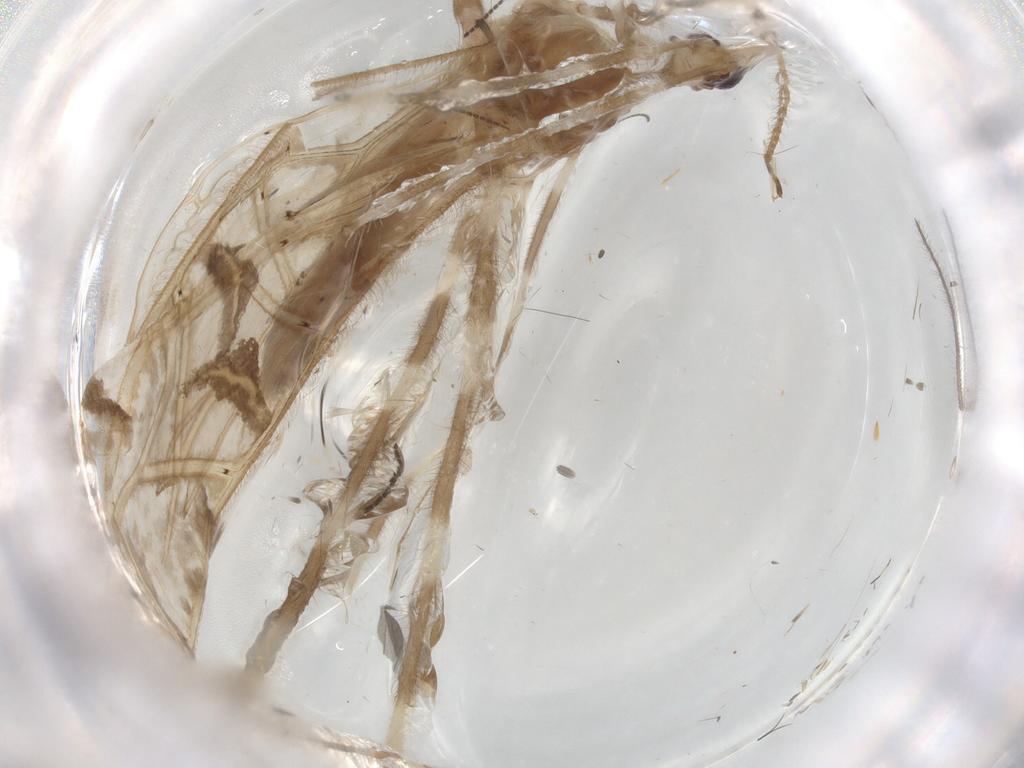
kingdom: Animalia
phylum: Arthropoda
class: Insecta
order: Hemiptera
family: Reduviidae
